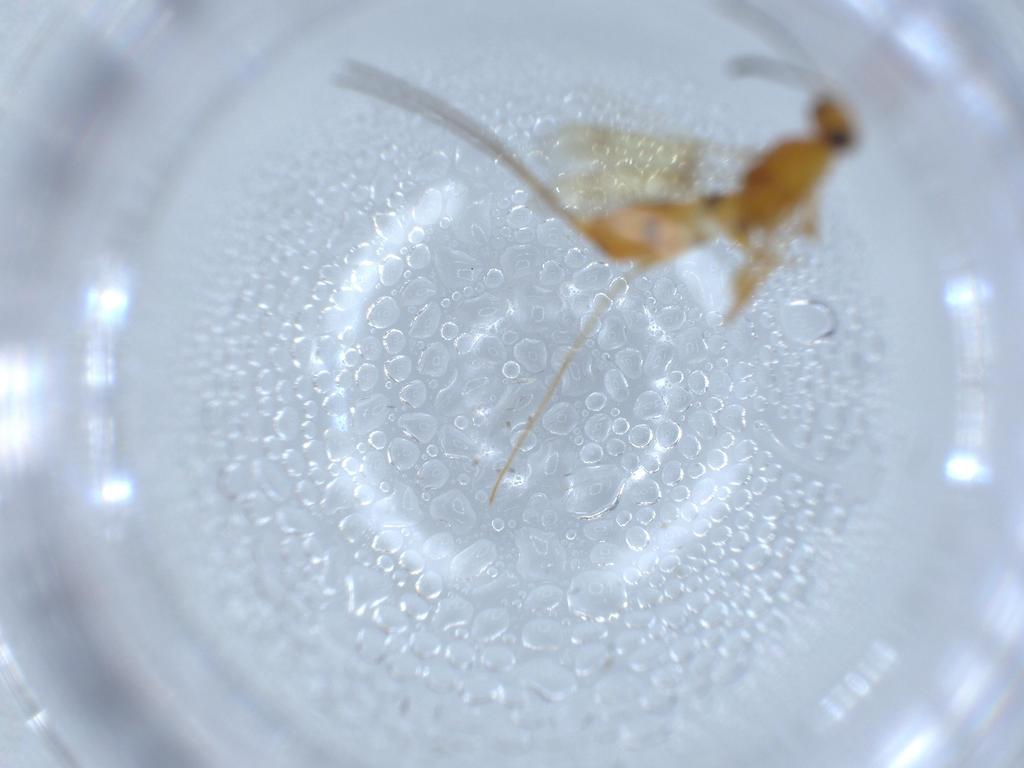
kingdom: Animalia
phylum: Arthropoda
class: Insecta
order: Hymenoptera
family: Eupelmidae
